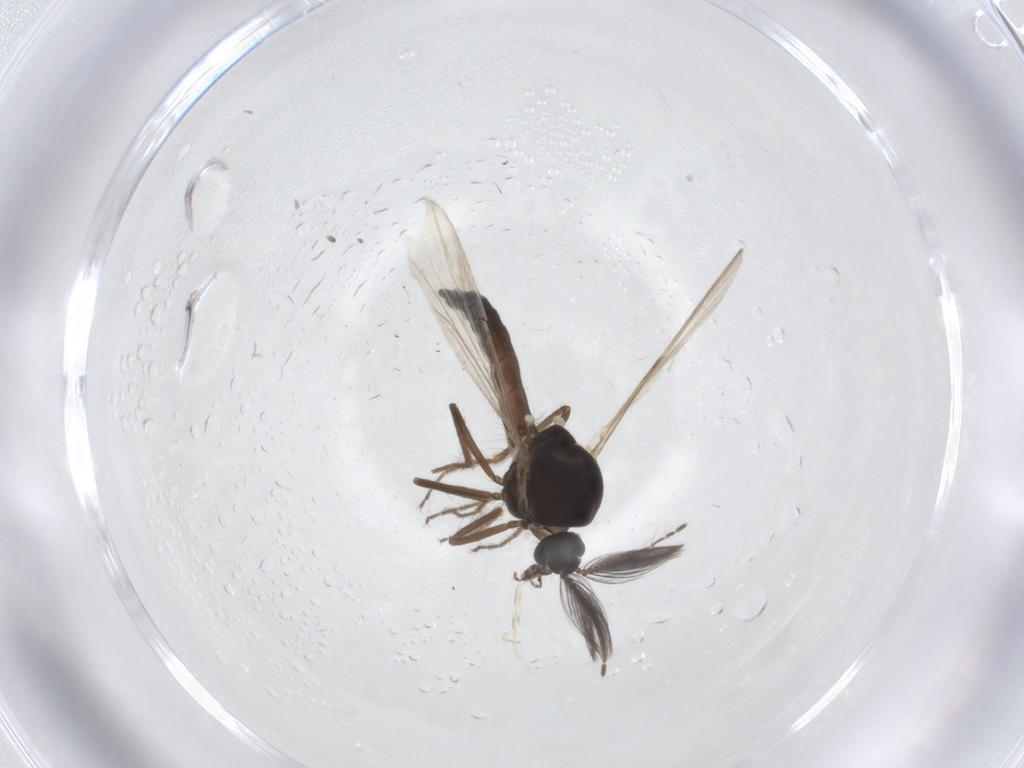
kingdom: Animalia
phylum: Arthropoda
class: Insecta
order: Diptera
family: Ceratopogonidae
